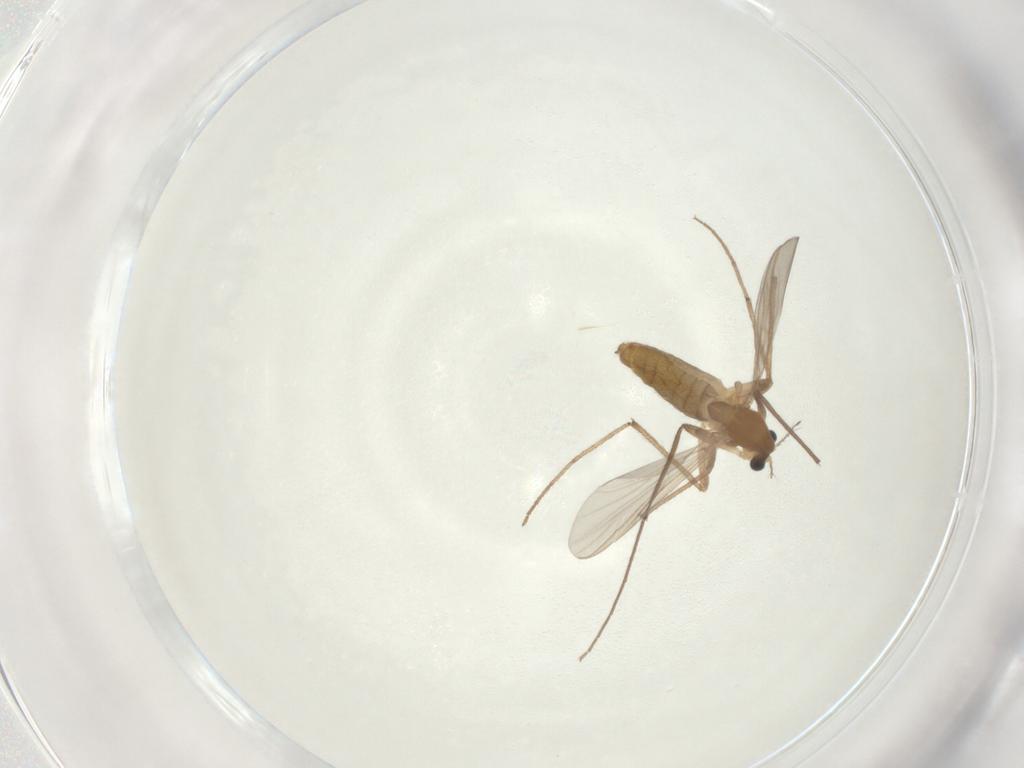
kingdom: Animalia
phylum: Arthropoda
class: Insecta
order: Diptera
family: Chironomidae
